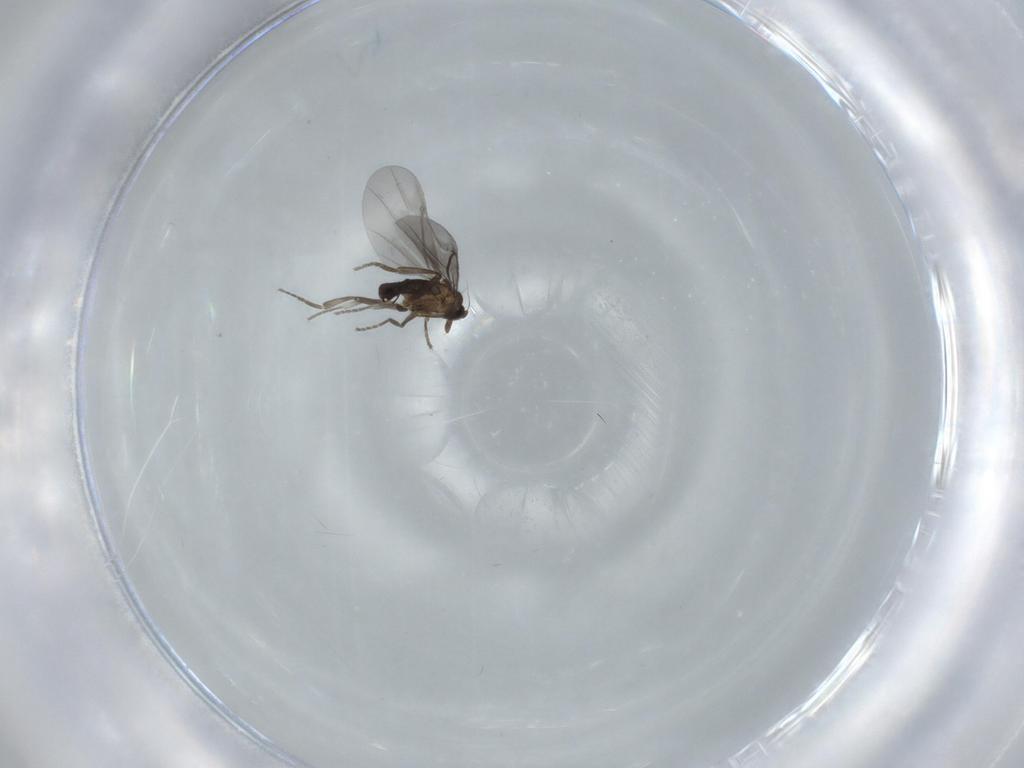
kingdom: Animalia
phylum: Arthropoda
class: Insecta
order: Diptera
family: Phoridae
